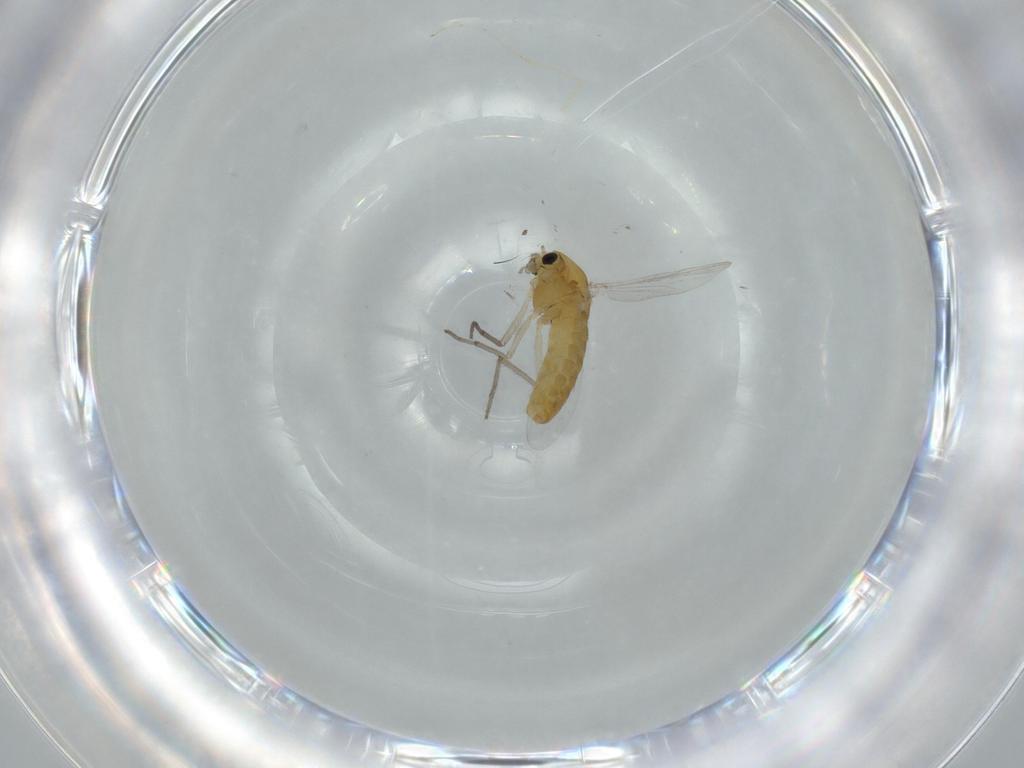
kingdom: Animalia
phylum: Arthropoda
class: Insecta
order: Diptera
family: Chironomidae
